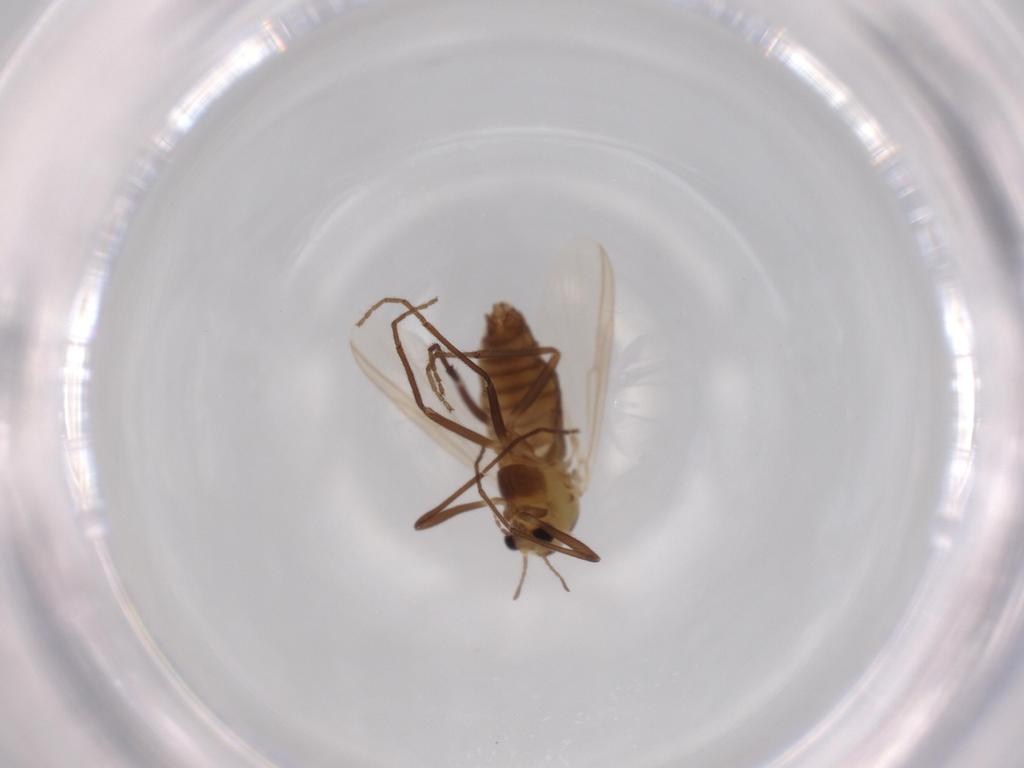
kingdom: Animalia
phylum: Arthropoda
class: Insecta
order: Diptera
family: Chironomidae
